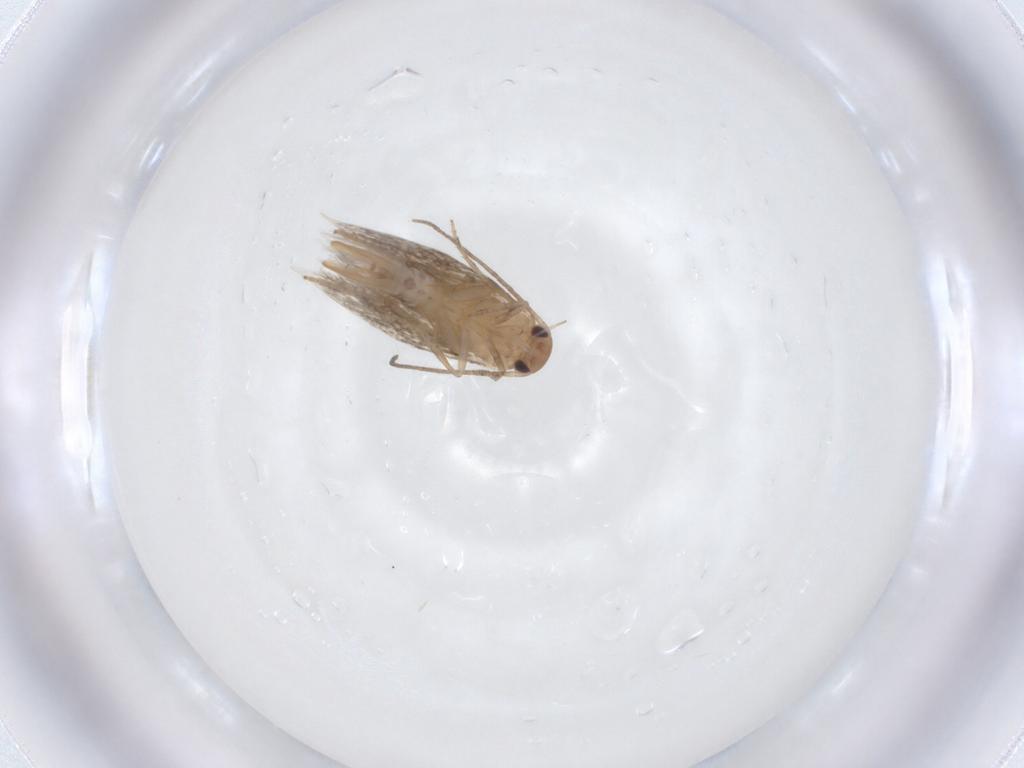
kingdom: Animalia
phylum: Arthropoda
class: Insecta
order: Lepidoptera
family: Elachistidae
